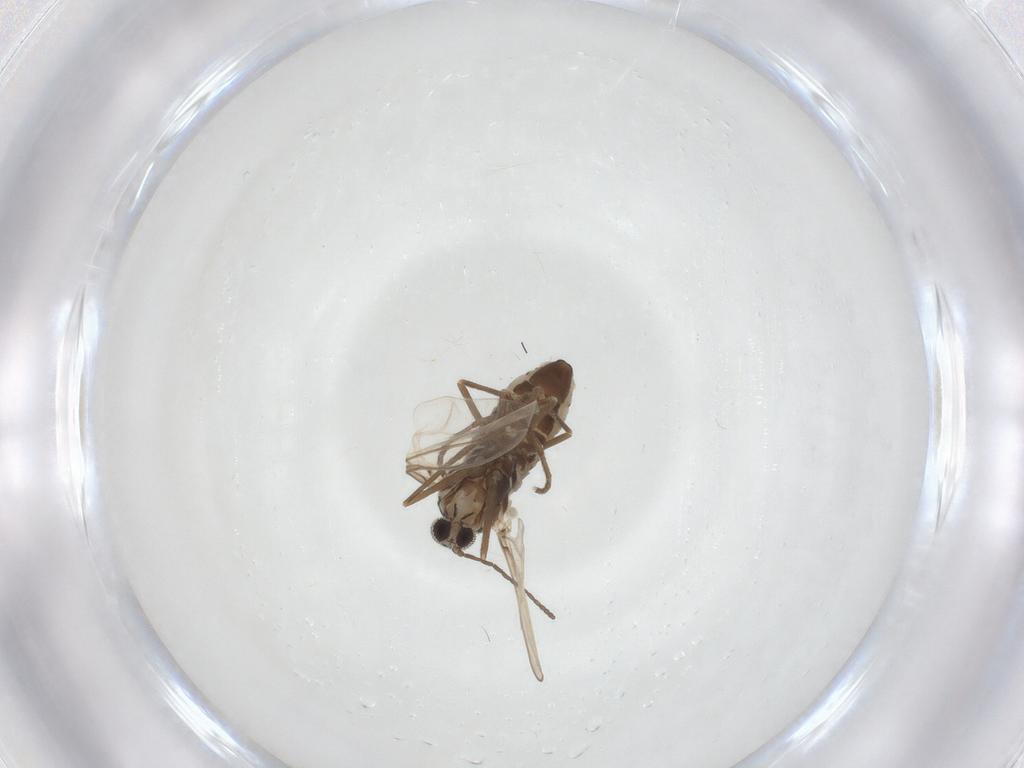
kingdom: Animalia
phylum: Arthropoda
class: Insecta
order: Diptera
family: Cecidomyiidae
